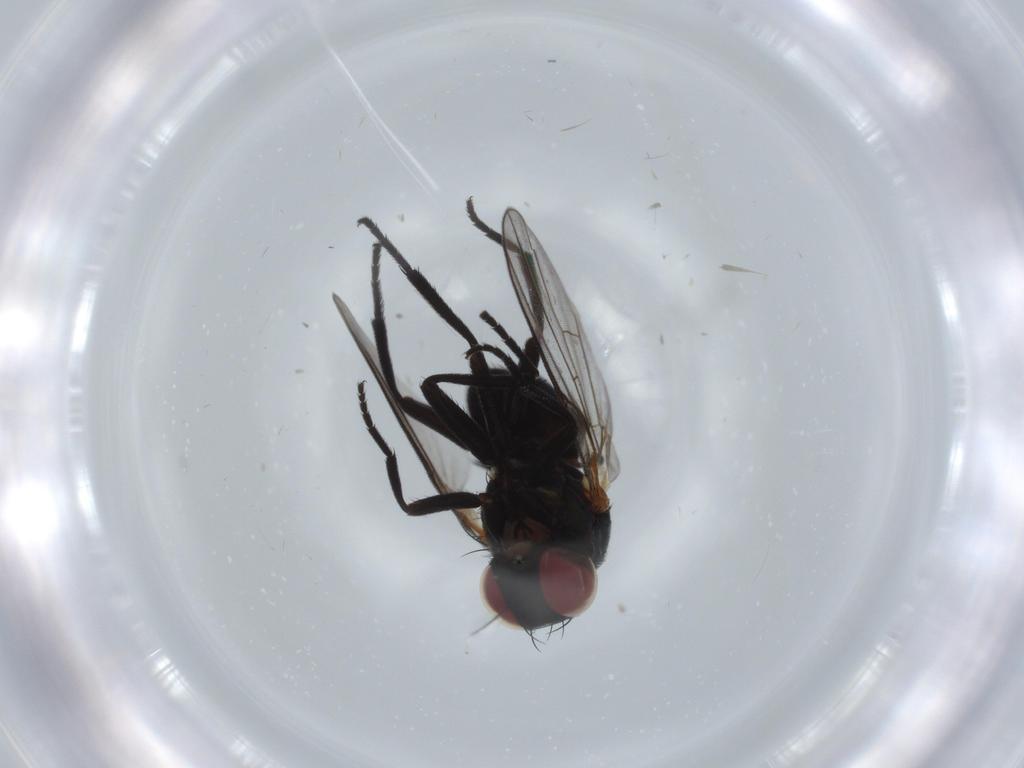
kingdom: Animalia
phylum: Arthropoda
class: Insecta
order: Diptera
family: Agromyzidae
